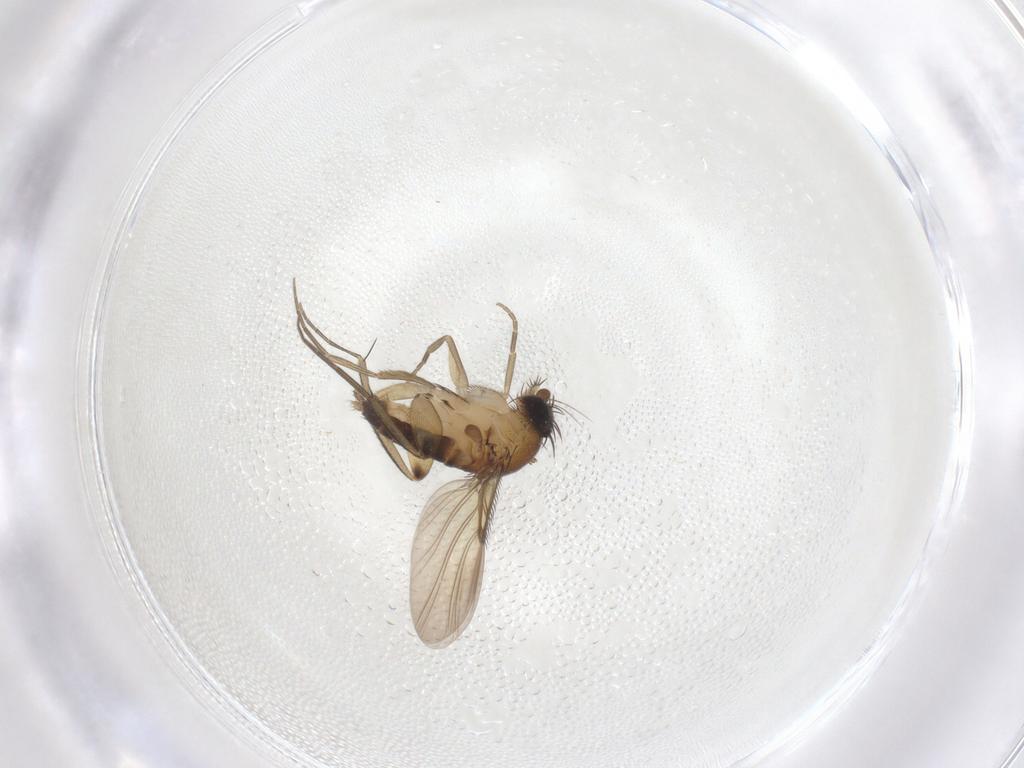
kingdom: Animalia
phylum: Arthropoda
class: Insecta
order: Diptera
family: Phoridae
